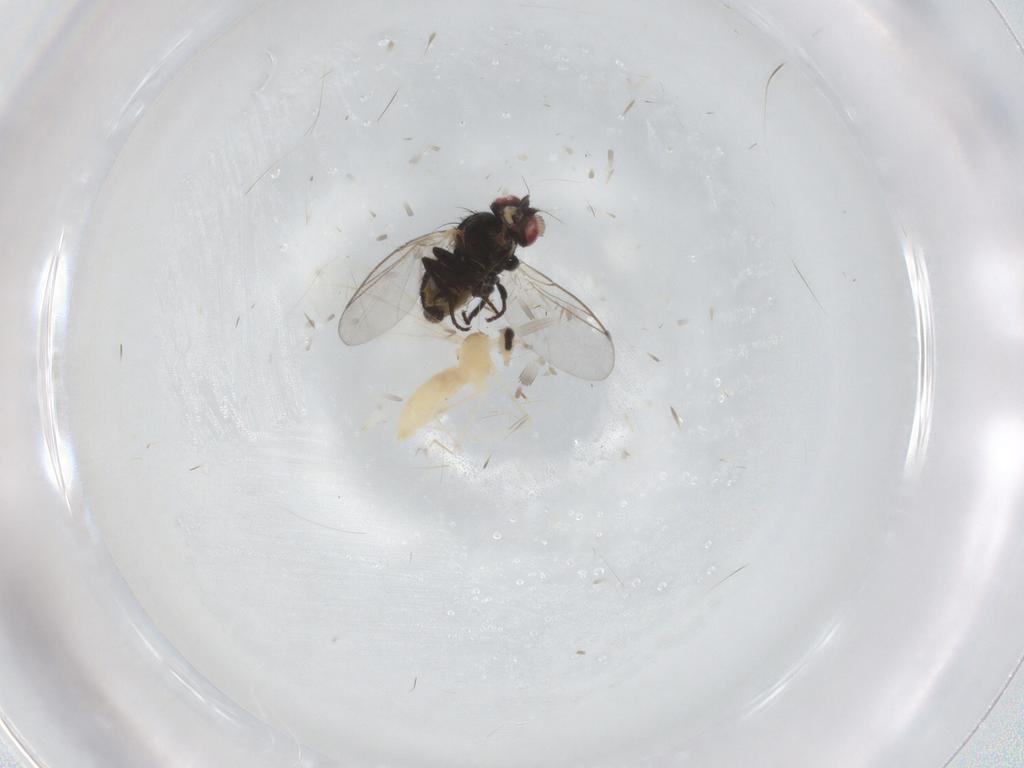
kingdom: Animalia
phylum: Arthropoda
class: Insecta
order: Diptera
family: Cecidomyiidae
